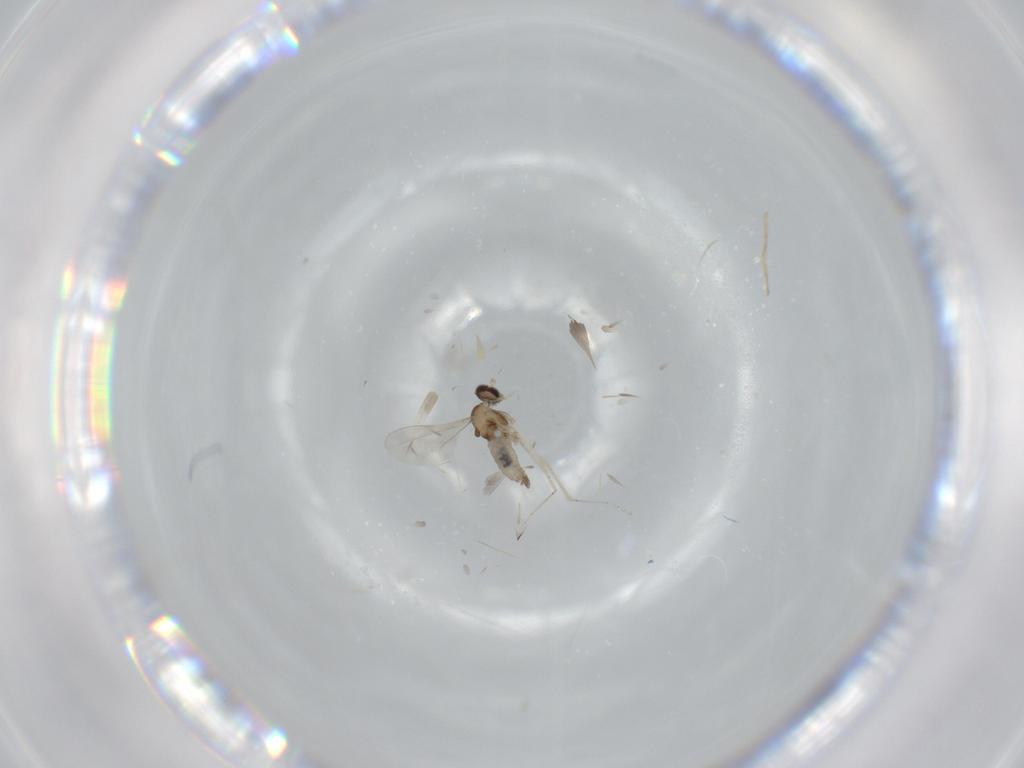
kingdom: Animalia
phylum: Arthropoda
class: Insecta
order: Diptera
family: Cecidomyiidae
